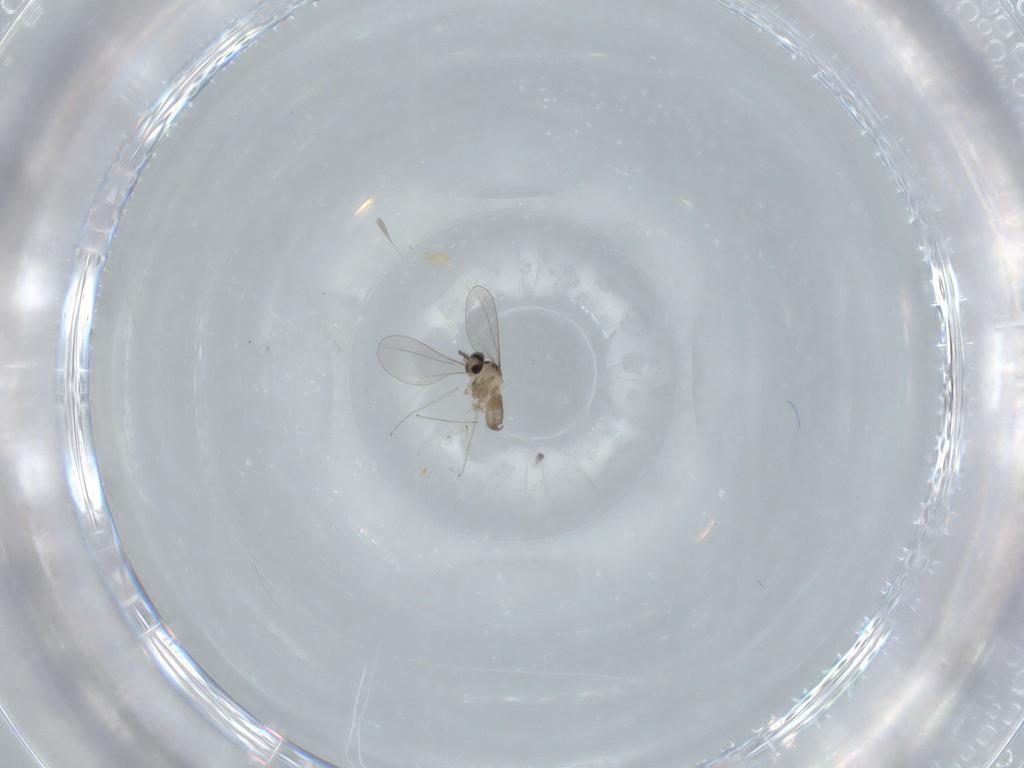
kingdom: Animalia
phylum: Arthropoda
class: Insecta
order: Diptera
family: Cecidomyiidae
